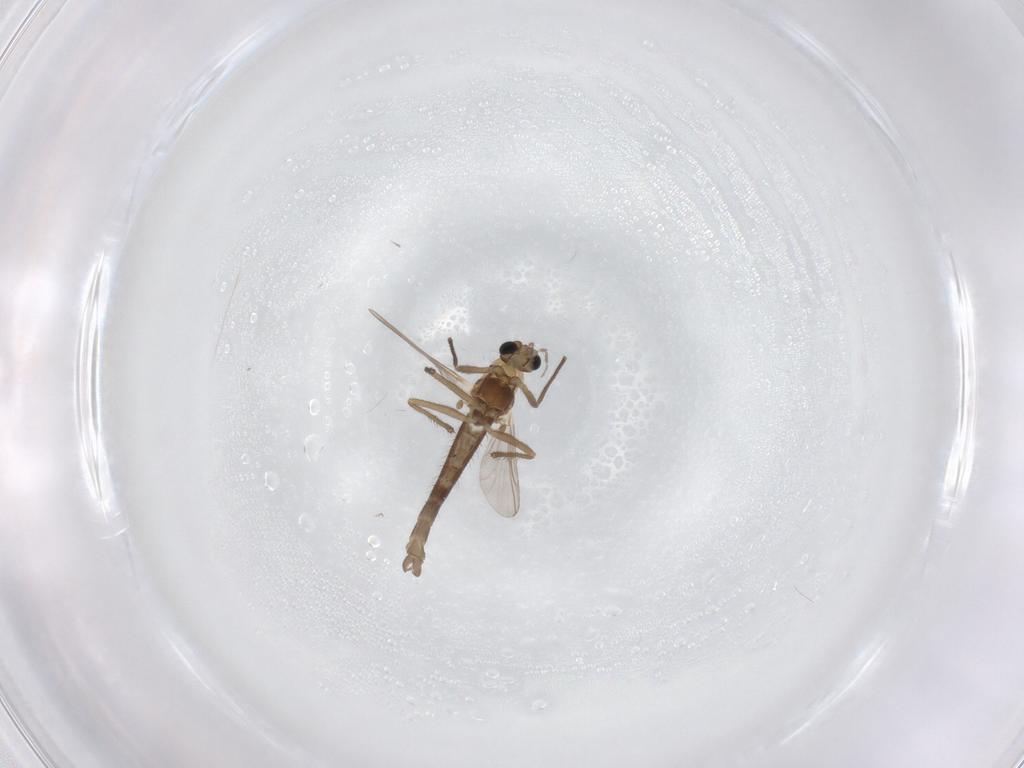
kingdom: Animalia
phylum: Arthropoda
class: Insecta
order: Diptera
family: Chironomidae
